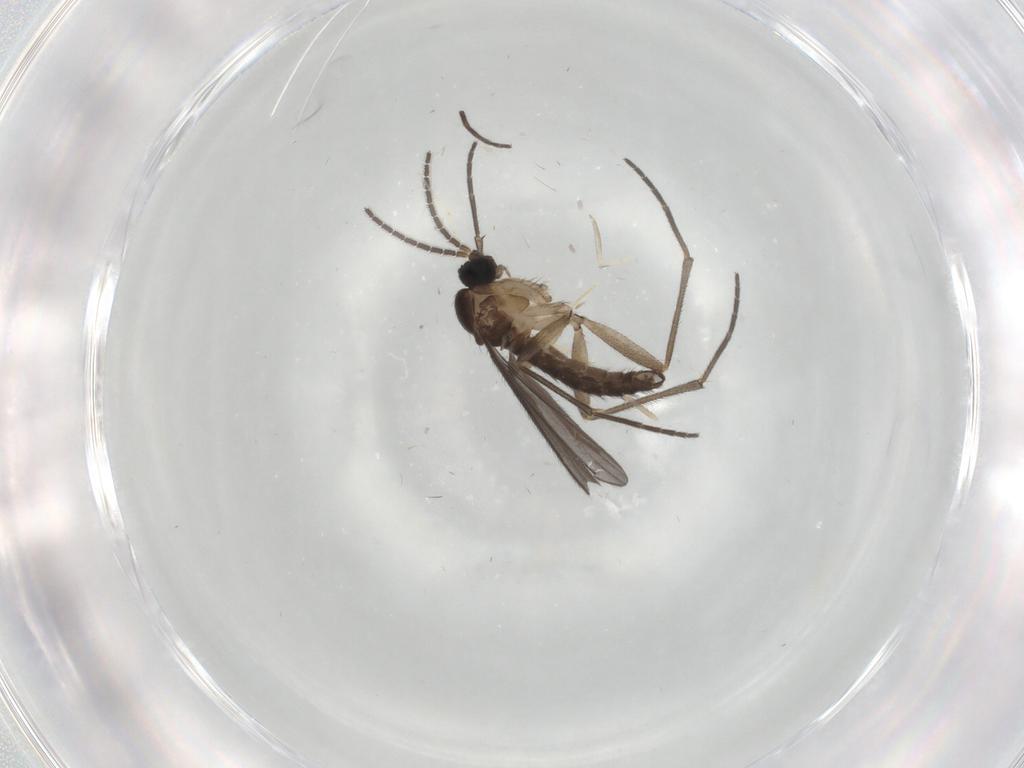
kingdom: Animalia
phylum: Arthropoda
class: Insecta
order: Diptera
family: Sciaridae
